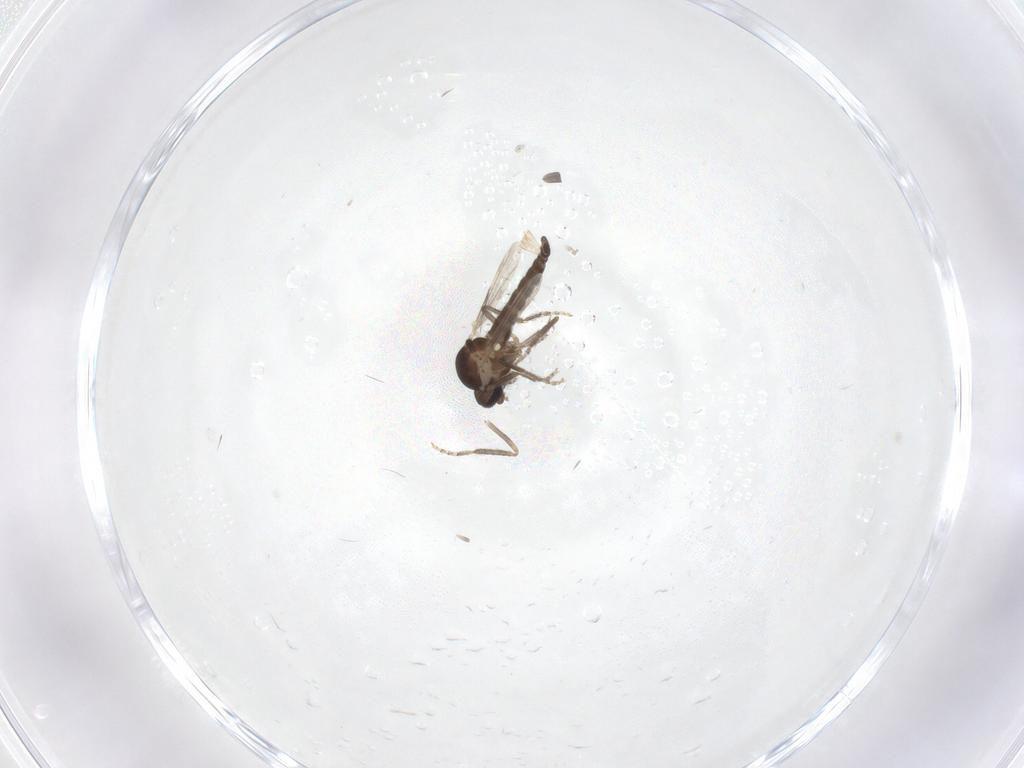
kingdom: Animalia
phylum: Arthropoda
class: Insecta
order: Diptera
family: Ceratopogonidae
